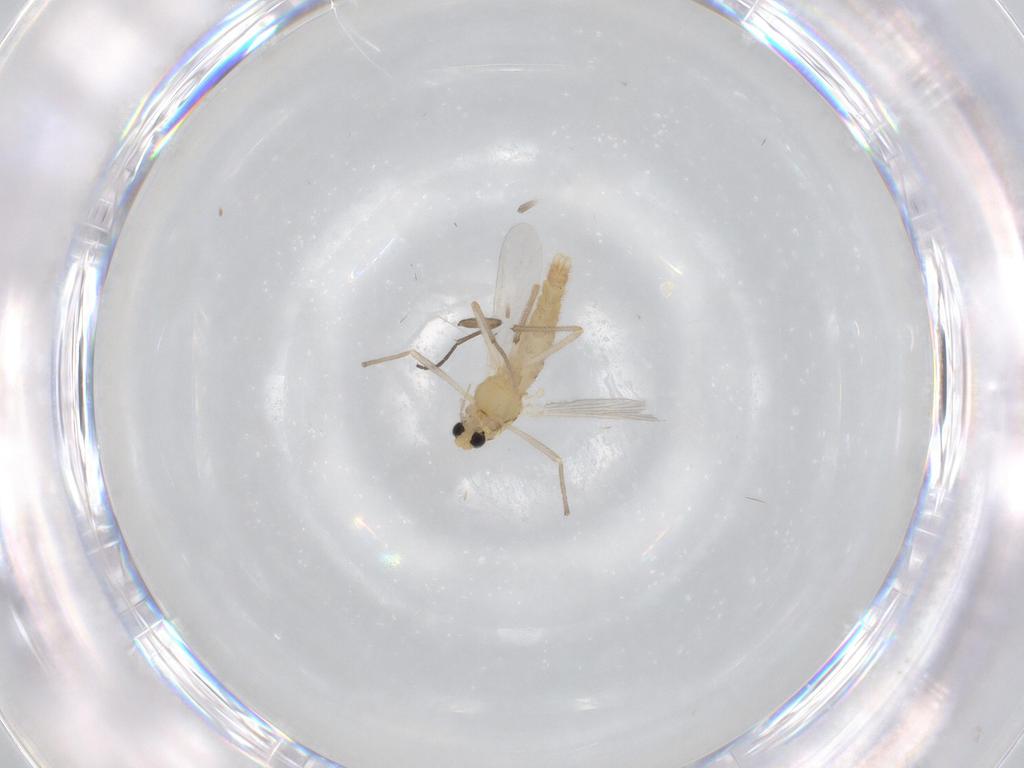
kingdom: Animalia
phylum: Arthropoda
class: Insecta
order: Diptera
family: Chironomidae
